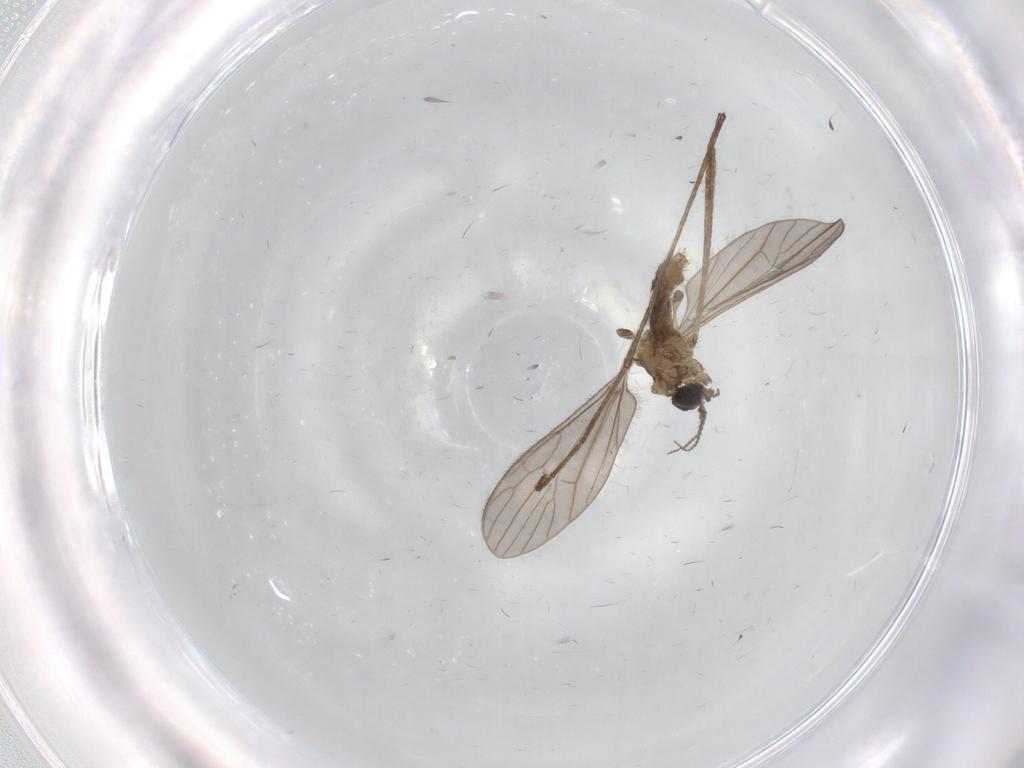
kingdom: Animalia
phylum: Arthropoda
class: Insecta
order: Diptera
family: Limoniidae
